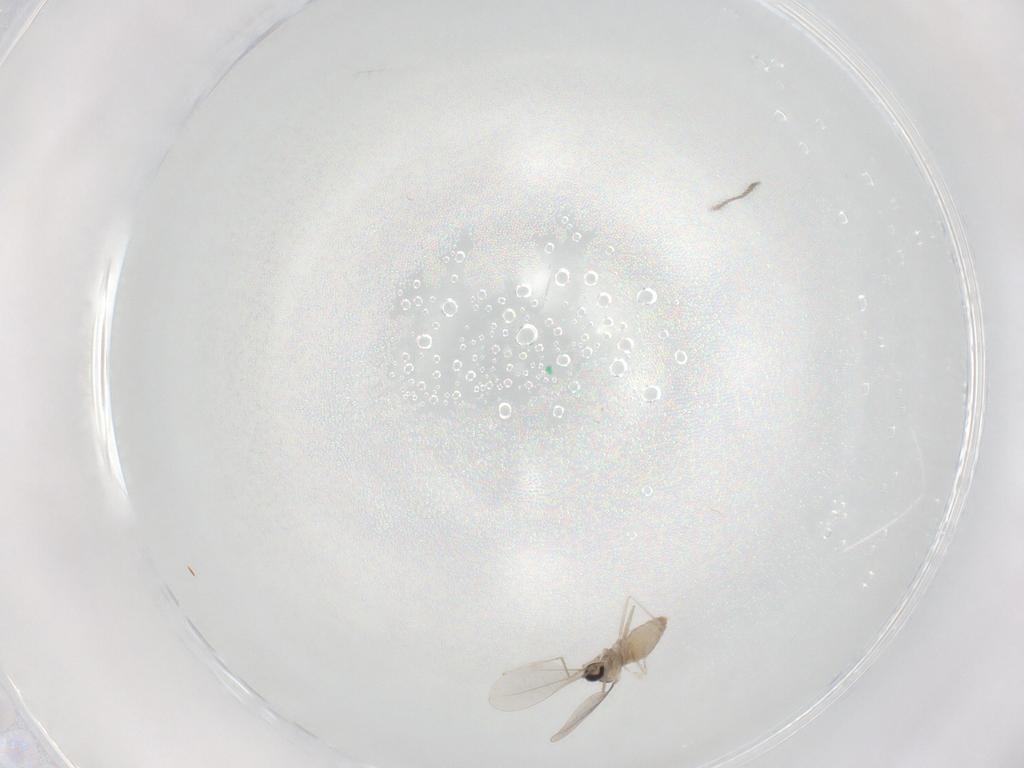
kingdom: Animalia
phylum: Arthropoda
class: Insecta
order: Diptera
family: Cecidomyiidae
